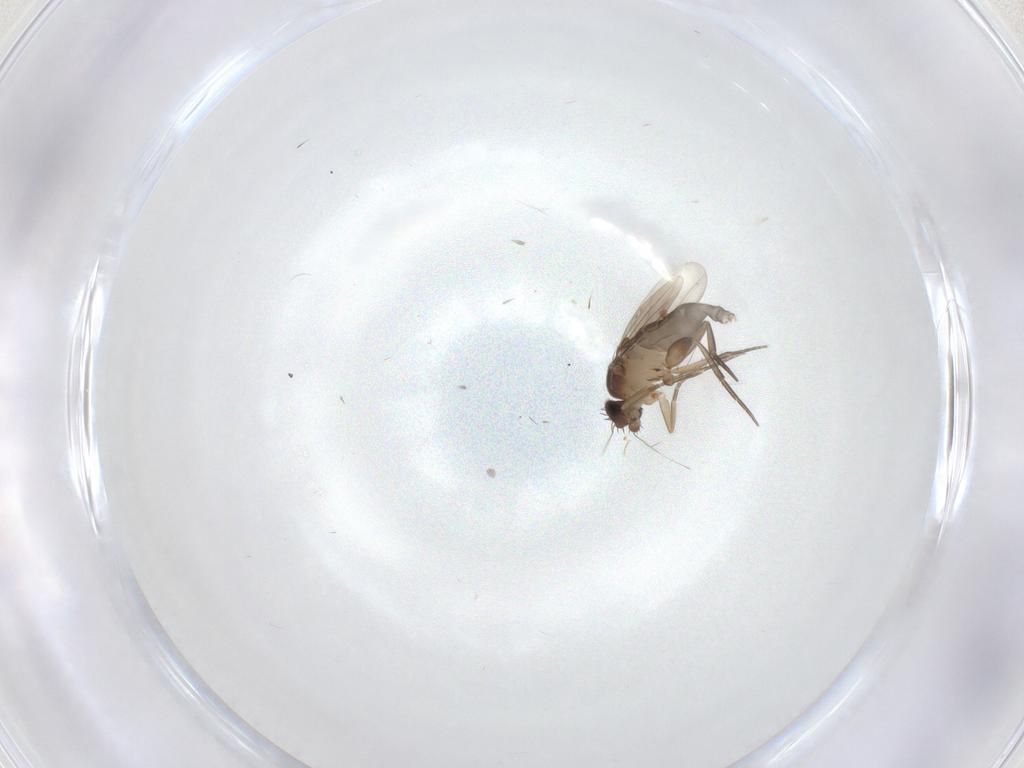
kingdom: Animalia
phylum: Arthropoda
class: Insecta
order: Diptera
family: Phoridae
